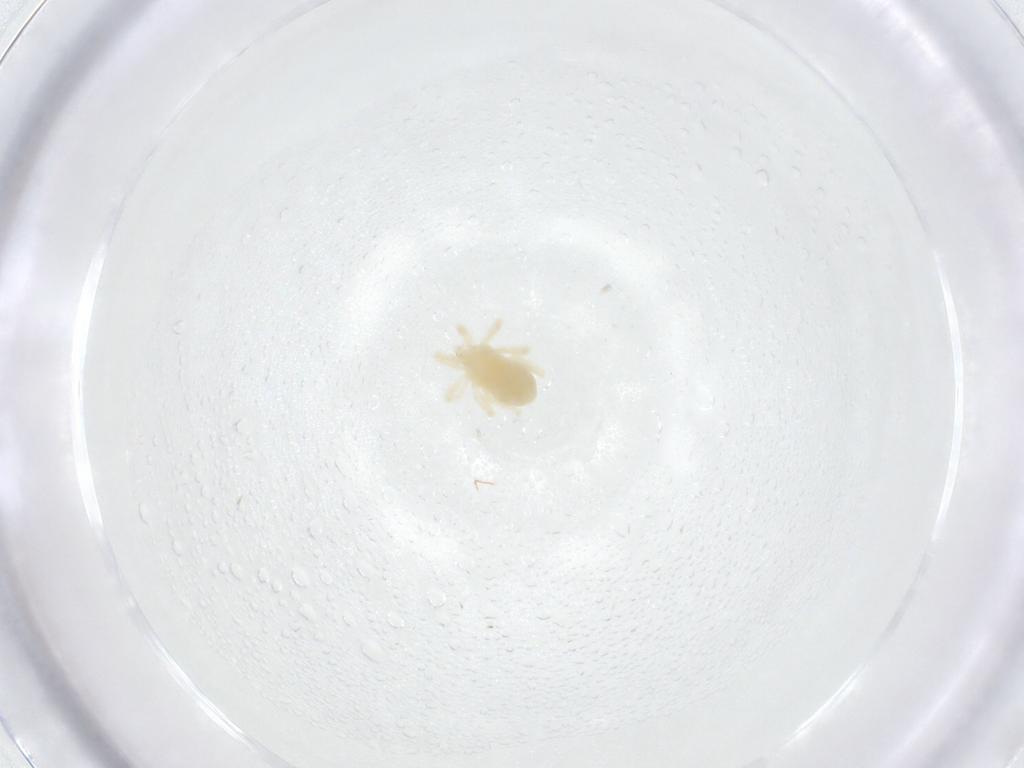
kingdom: Animalia
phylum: Arthropoda
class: Arachnida
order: Trombidiformes
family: Anystidae
